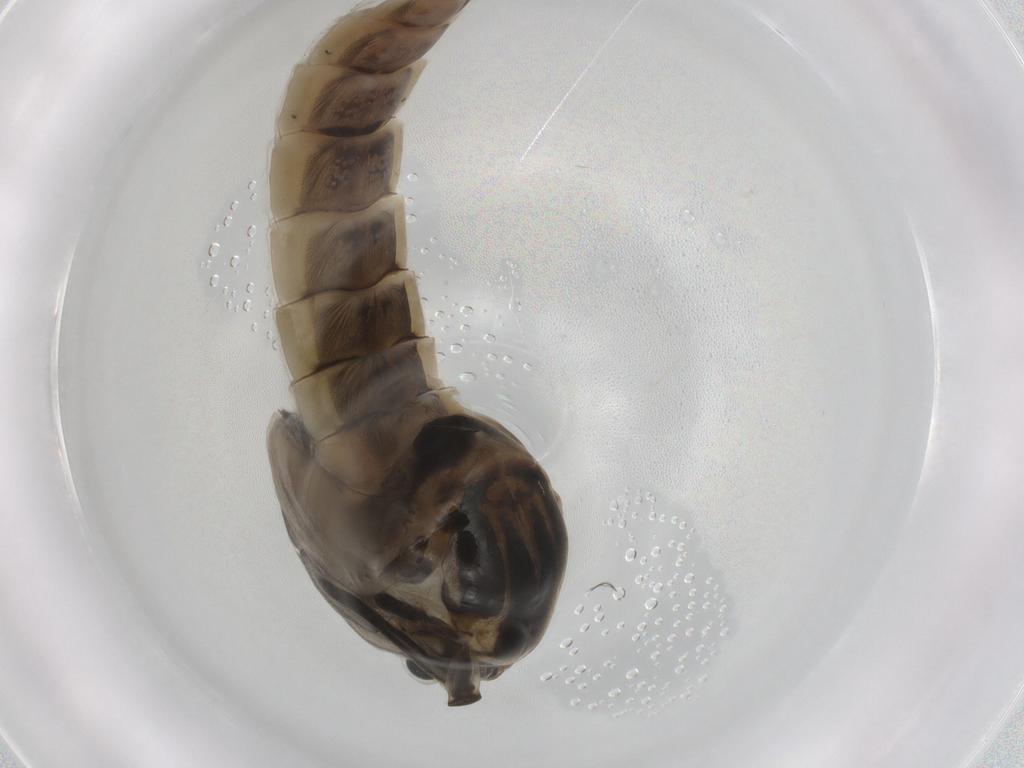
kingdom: Animalia
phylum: Arthropoda
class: Insecta
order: Diptera
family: Chironomidae
